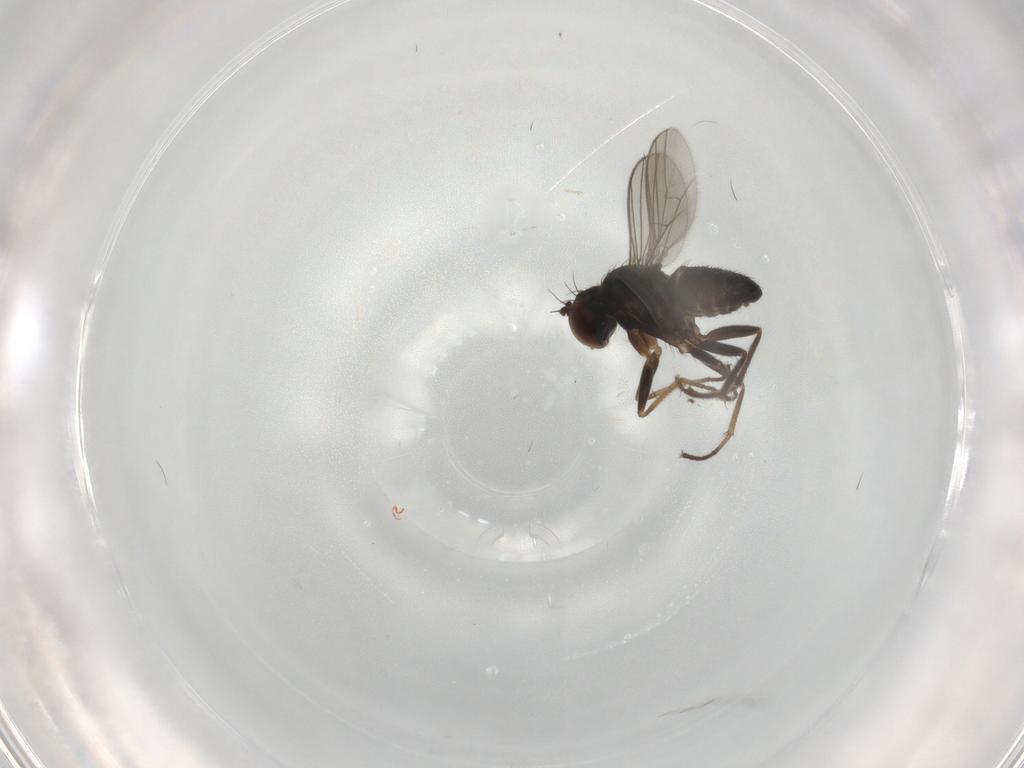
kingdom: Animalia
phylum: Arthropoda
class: Insecta
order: Diptera
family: Dolichopodidae
